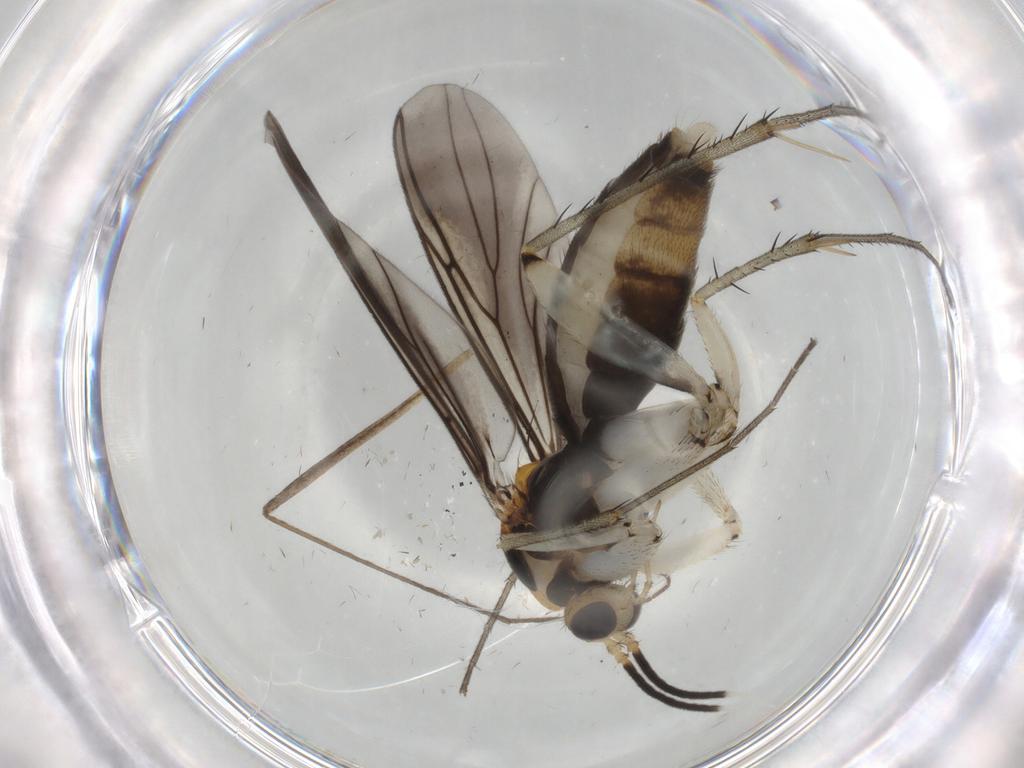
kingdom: Animalia
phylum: Arthropoda
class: Insecta
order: Diptera
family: Mycetophilidae
